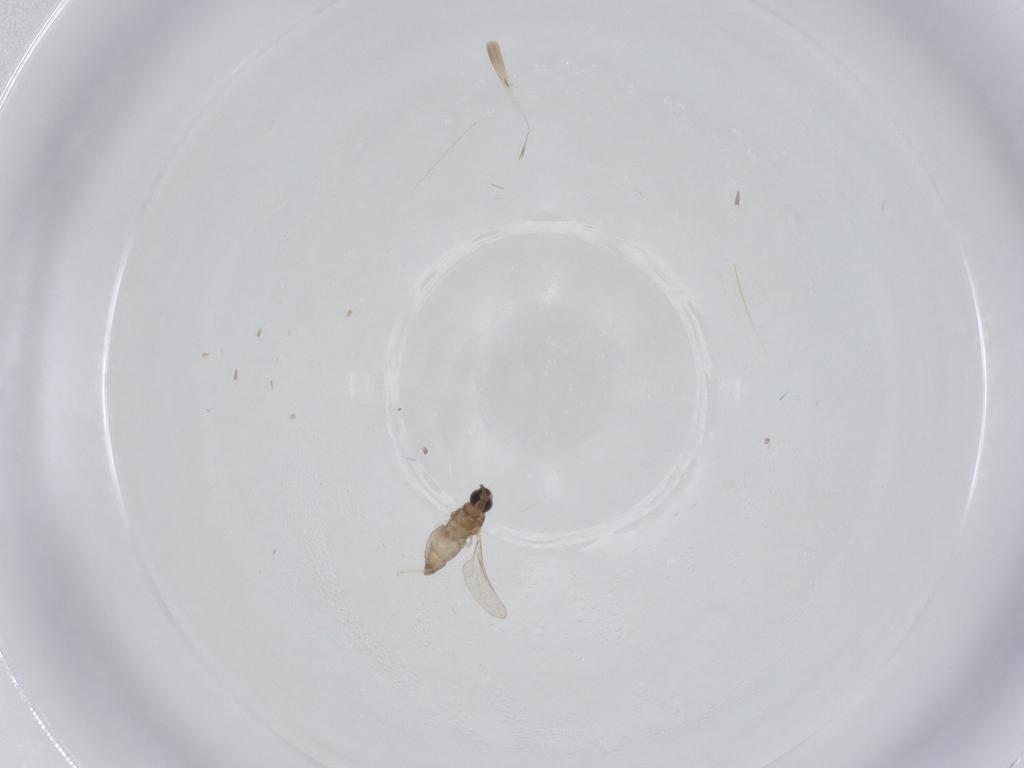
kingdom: Animalia
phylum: Arthropoda
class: Insecta
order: Diptera
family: Cecidomyiidae
